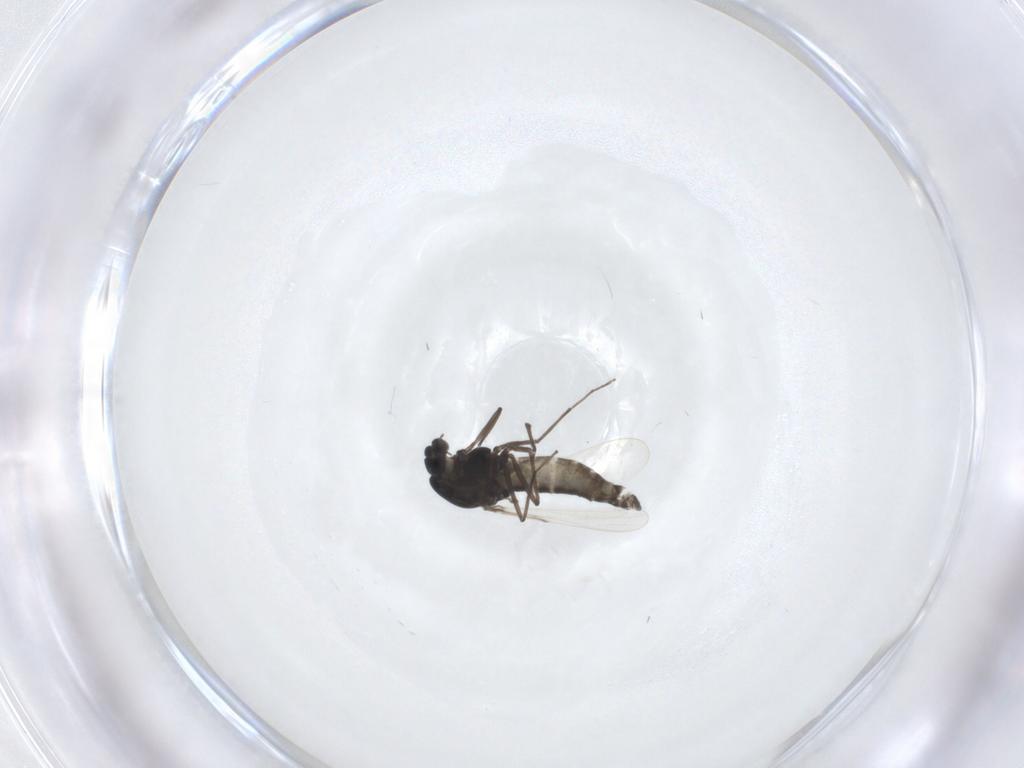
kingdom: Animalia
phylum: Arthropoda
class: Insecta
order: Diptera
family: Chironomidae
